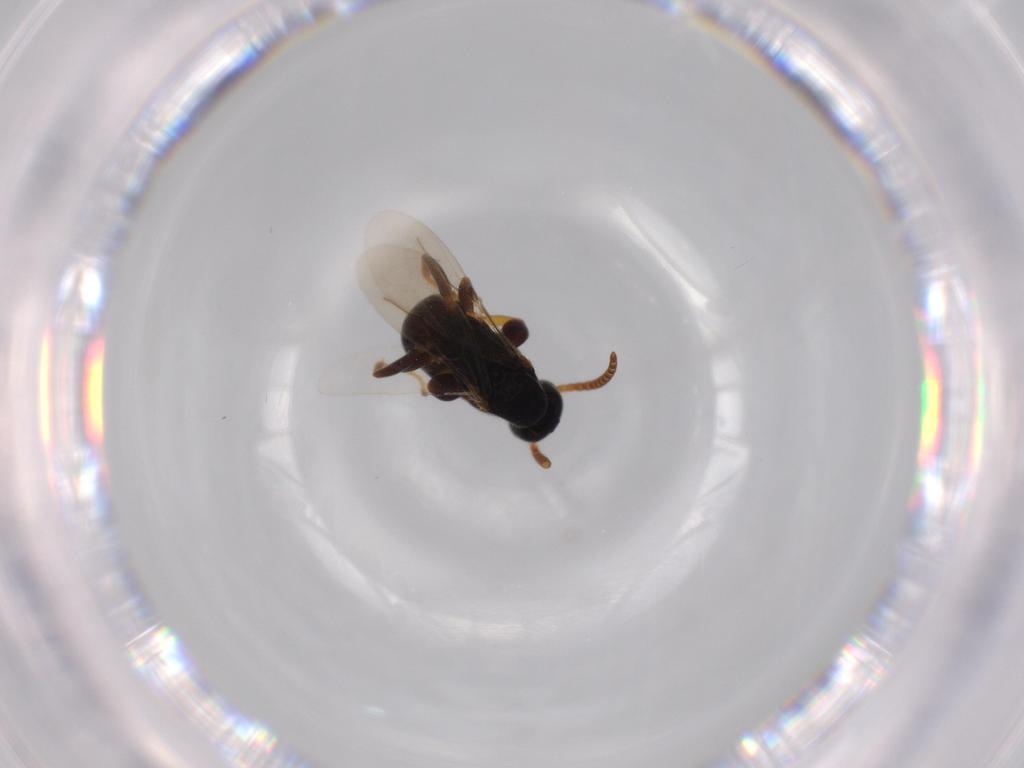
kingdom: Animalia
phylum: Arthropoda
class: Insecta
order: Hymenoptera
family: Bethylidae
